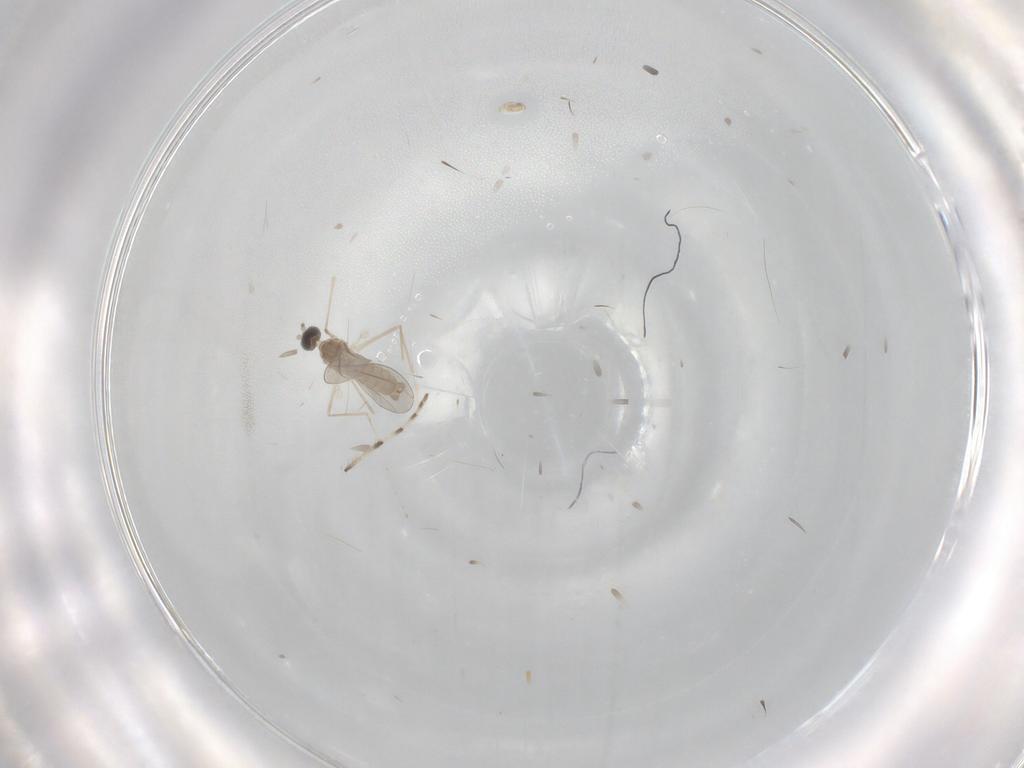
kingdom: Animalia
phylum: Arthropoda
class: Insecta
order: Diptera
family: Cecidomyiidae
